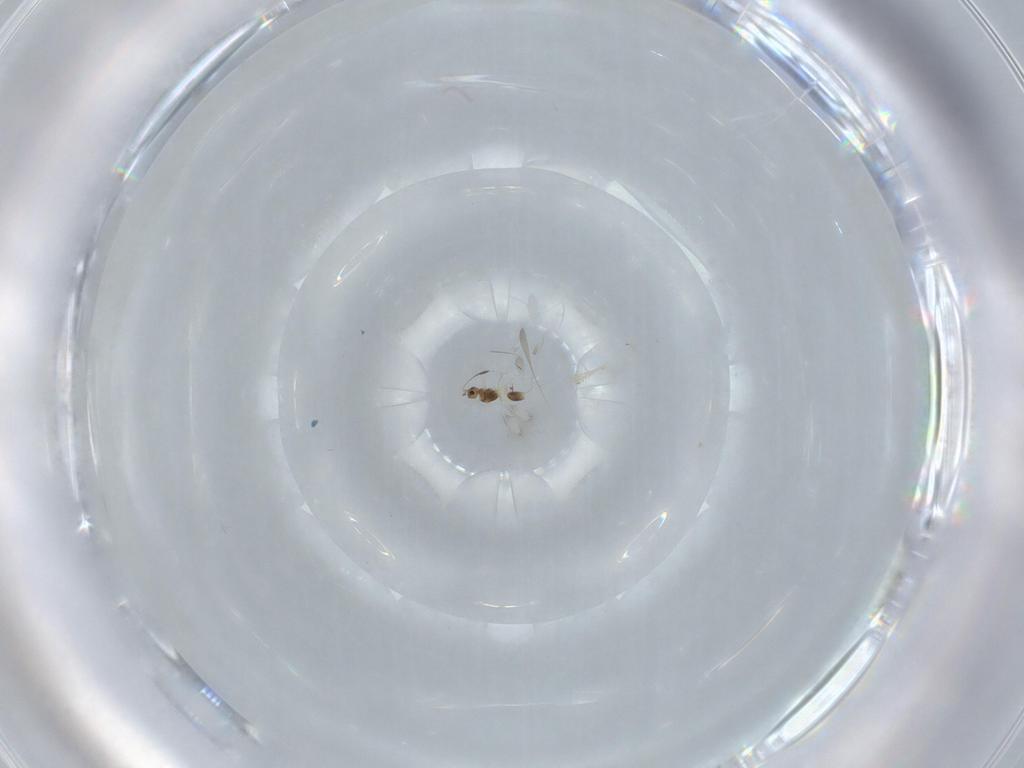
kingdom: Animalia
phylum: Arthropoda
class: Insecta
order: Hymenoptera
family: Mymarommatidae
